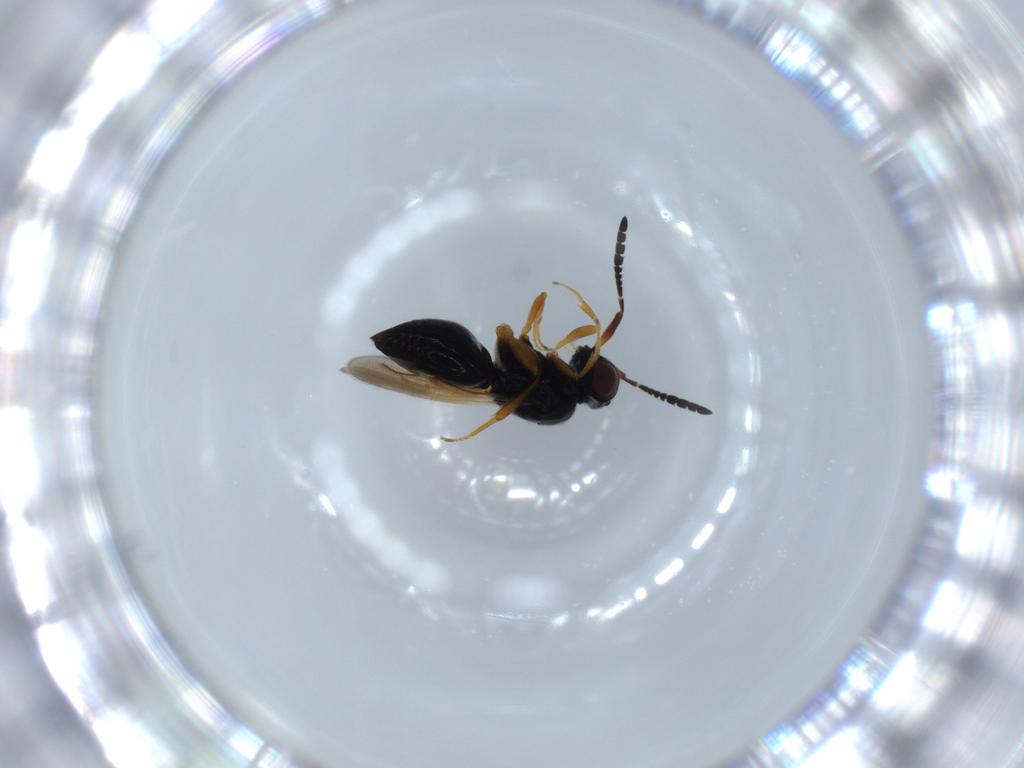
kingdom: Animalia
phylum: Arthropoda
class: Insecta
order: Hymenoptera
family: Ceraphronidae
